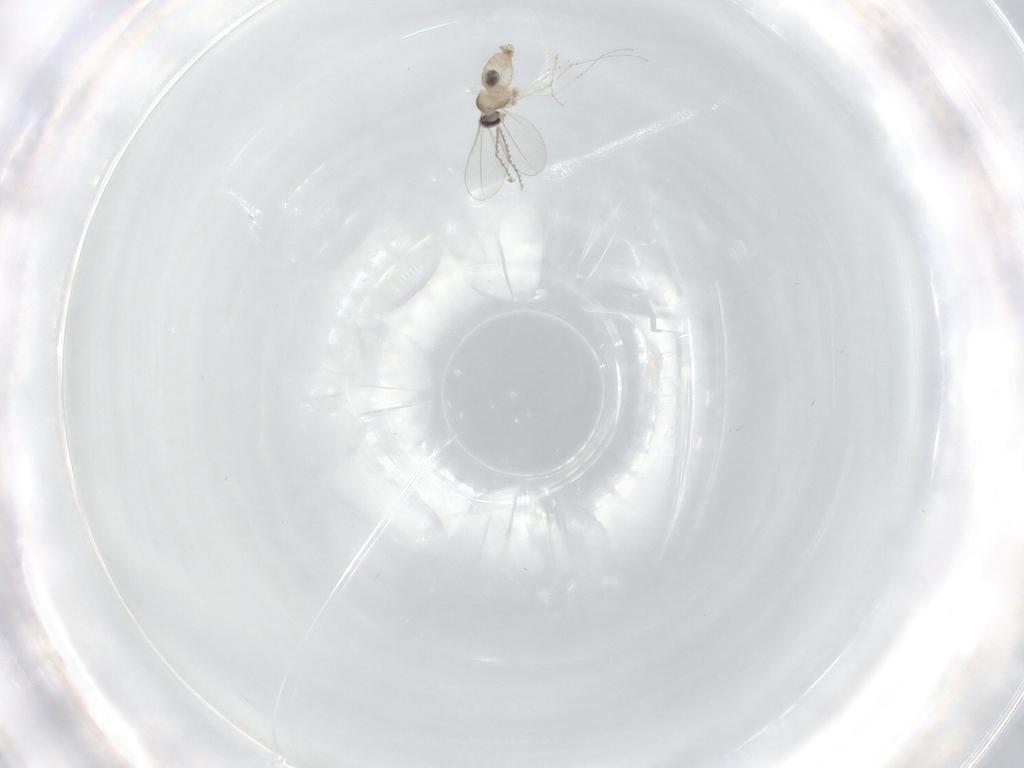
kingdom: Animalia
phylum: Arthropoda
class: Insecta
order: Diptera
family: Cecidomyiidae
